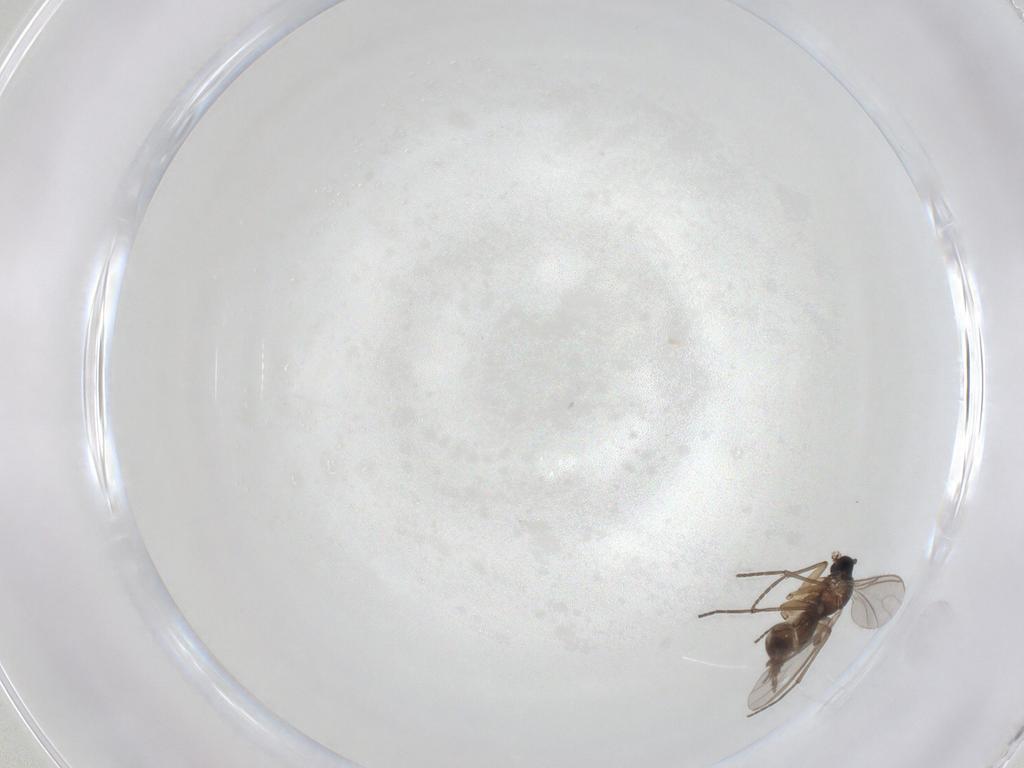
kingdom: Animalia
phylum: Arthropoda
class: Insecta
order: Diptera
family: Sciaridae
